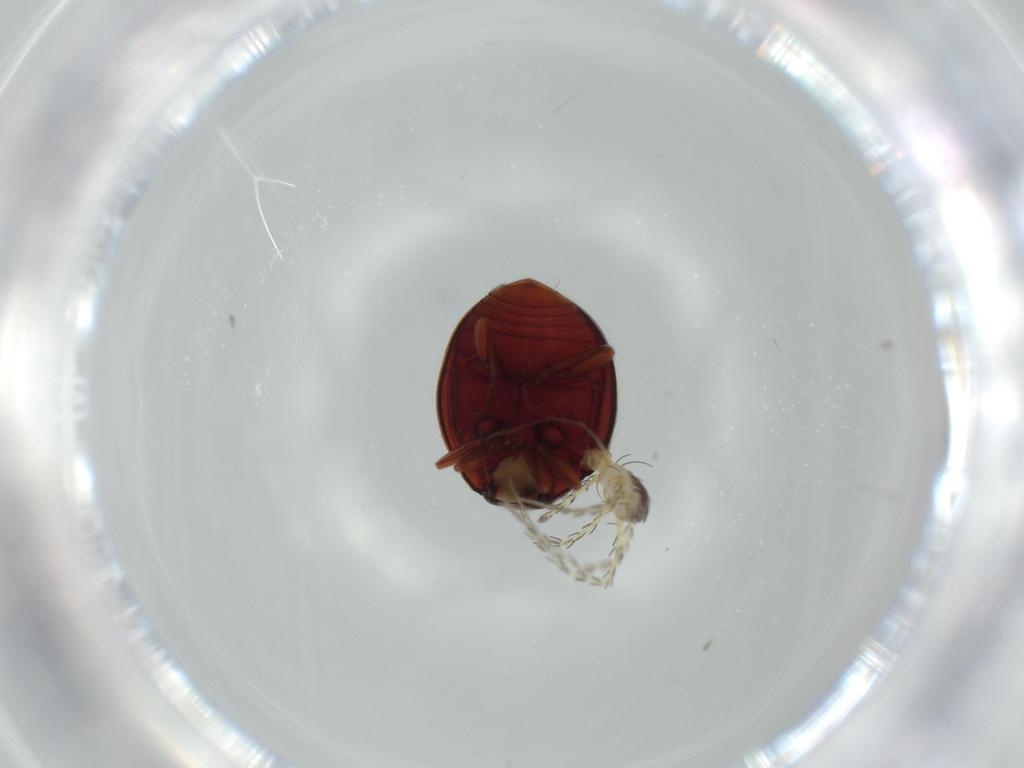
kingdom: Animalia
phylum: Arthropoda
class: Insecta
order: Coleoptera
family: Coccinellidae
